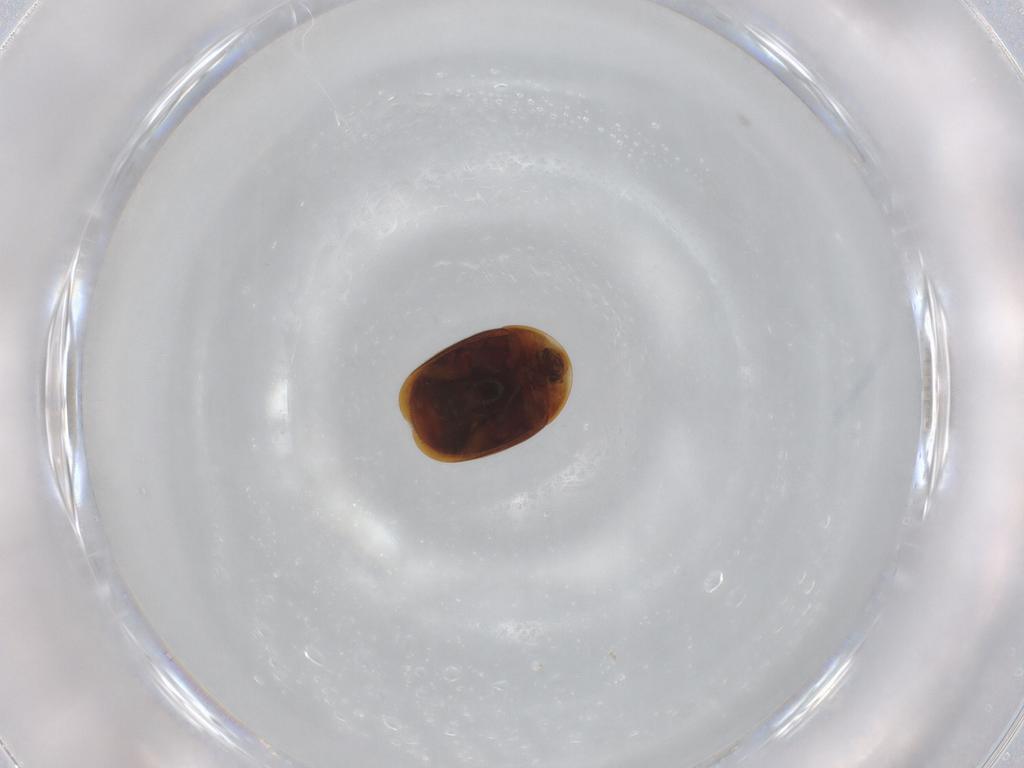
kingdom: Animalia
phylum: Arthropoda
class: Insecta
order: Coleoptera
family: Corylophidae
